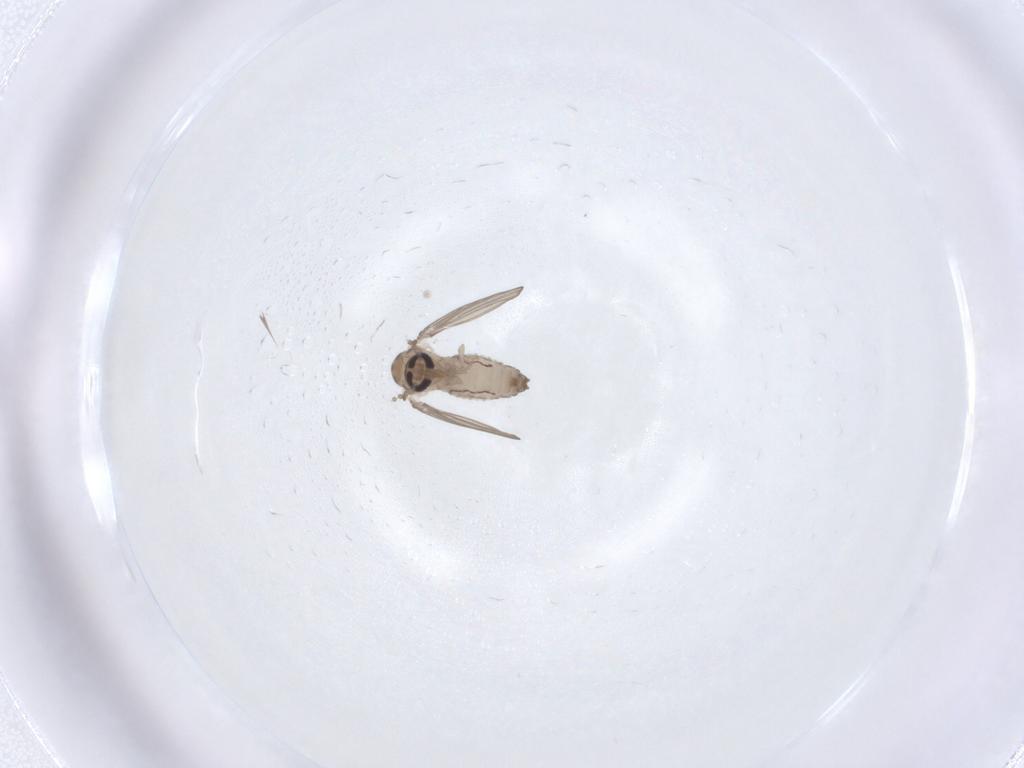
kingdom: Animalia
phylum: Arthropoda
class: Insecta
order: Diptera
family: Psychodidae
